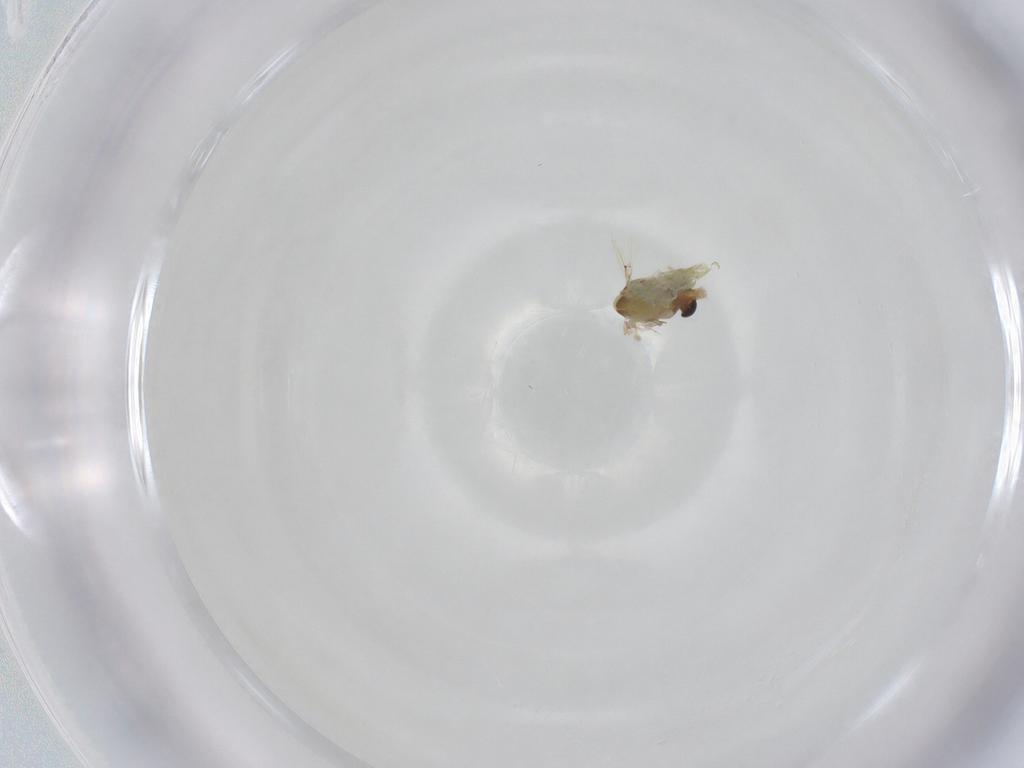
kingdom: Animalia
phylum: Arthropoda
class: Insecta
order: Diptera
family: Chironomidae
